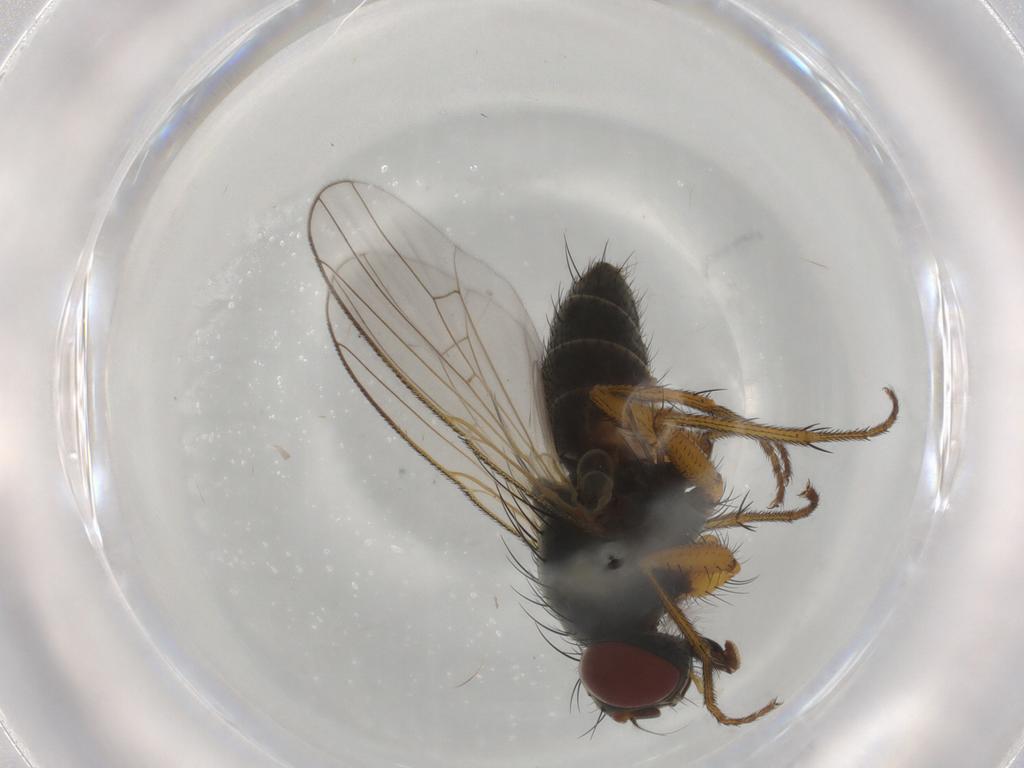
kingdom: Animalia
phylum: Arthropoda
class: Insecta
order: Diptera
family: Muscidae
